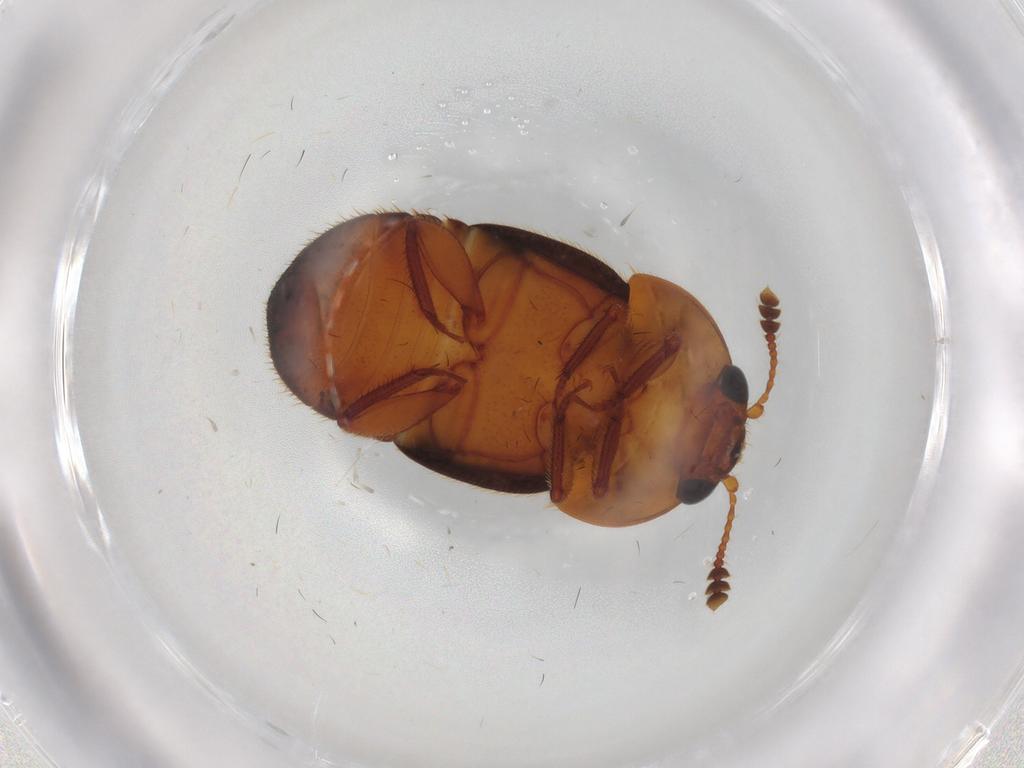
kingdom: Animalia
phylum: Arthropoda
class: Insecta
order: Coleoptera
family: Nitidulidae
